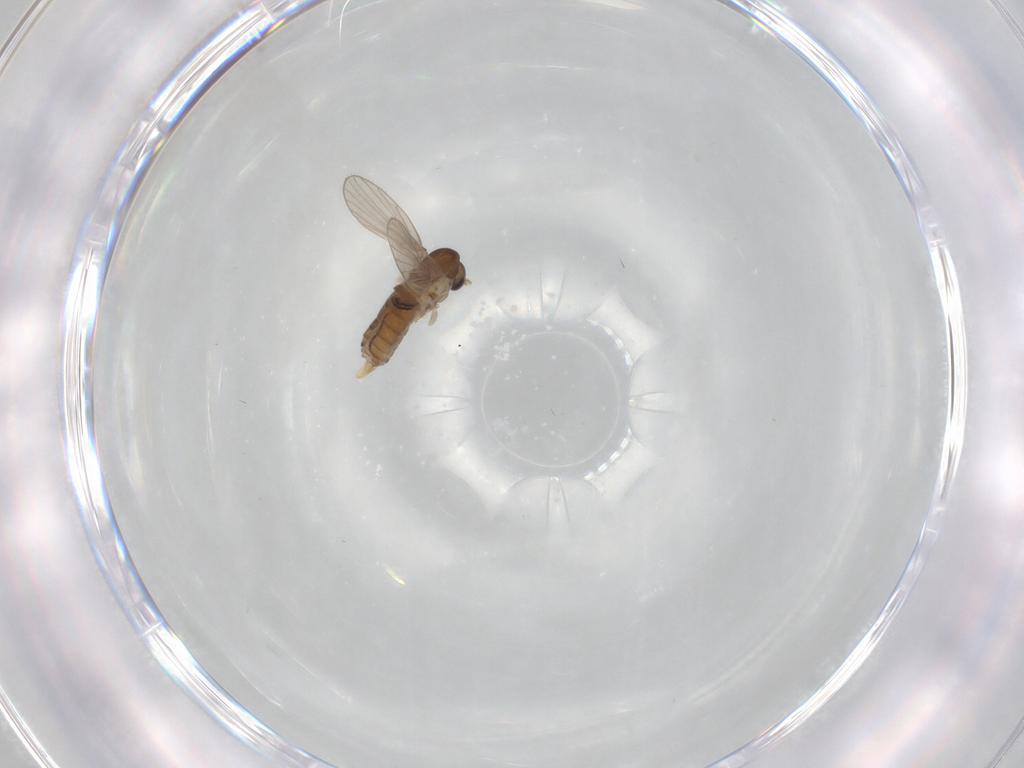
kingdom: Animalia
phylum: Arthropoda
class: Insecta
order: Diptera
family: Cecidomyiidae
